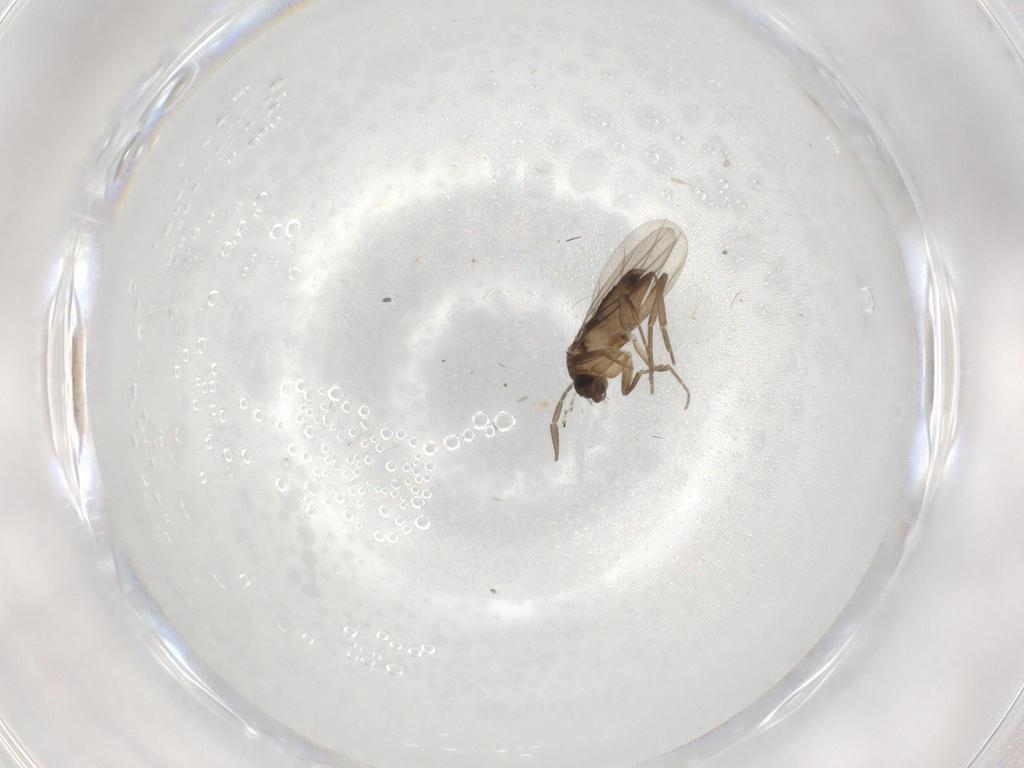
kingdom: Animalia
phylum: Arthropoda
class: Insecta
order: Diptera
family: Phoridae
